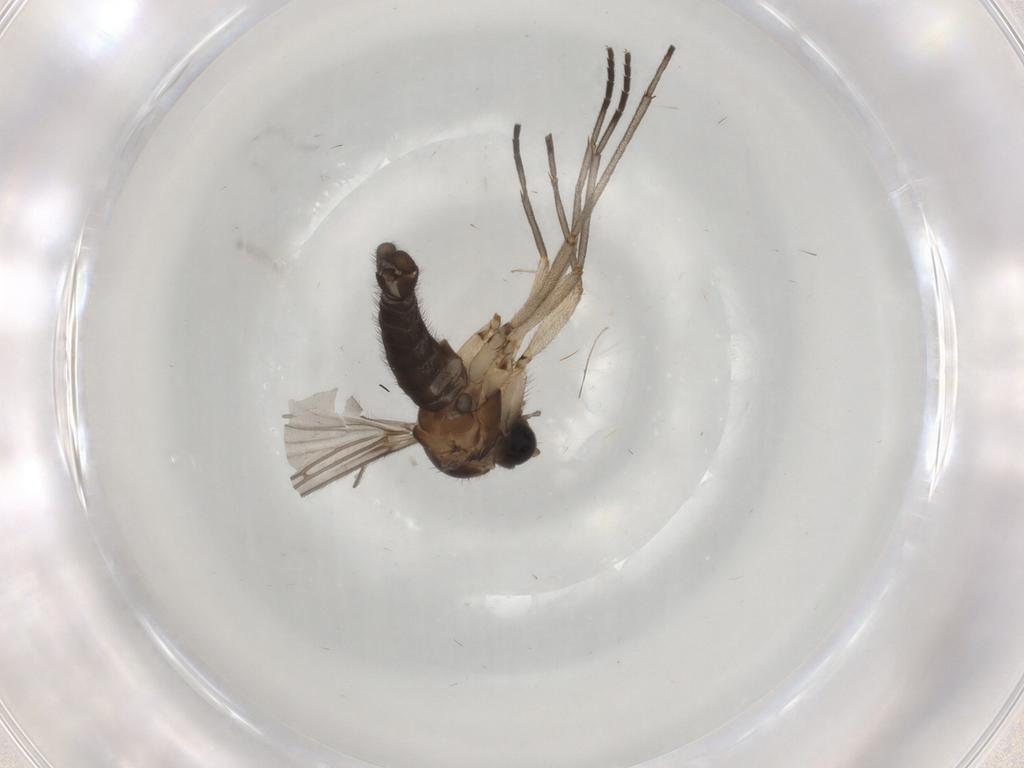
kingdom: Animalia
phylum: Arthropoda
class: Insecta
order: Diptera
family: Sciaridae
